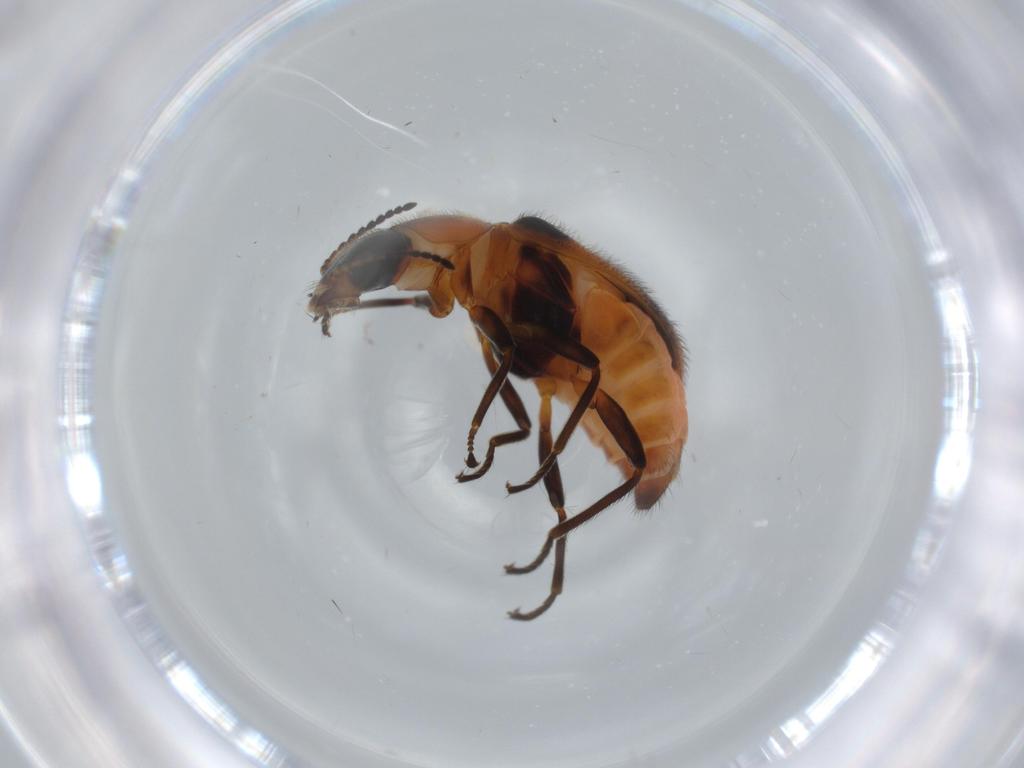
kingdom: Animalia
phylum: Arthropoda
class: Insecta
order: Coleoptera
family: Melyridae
